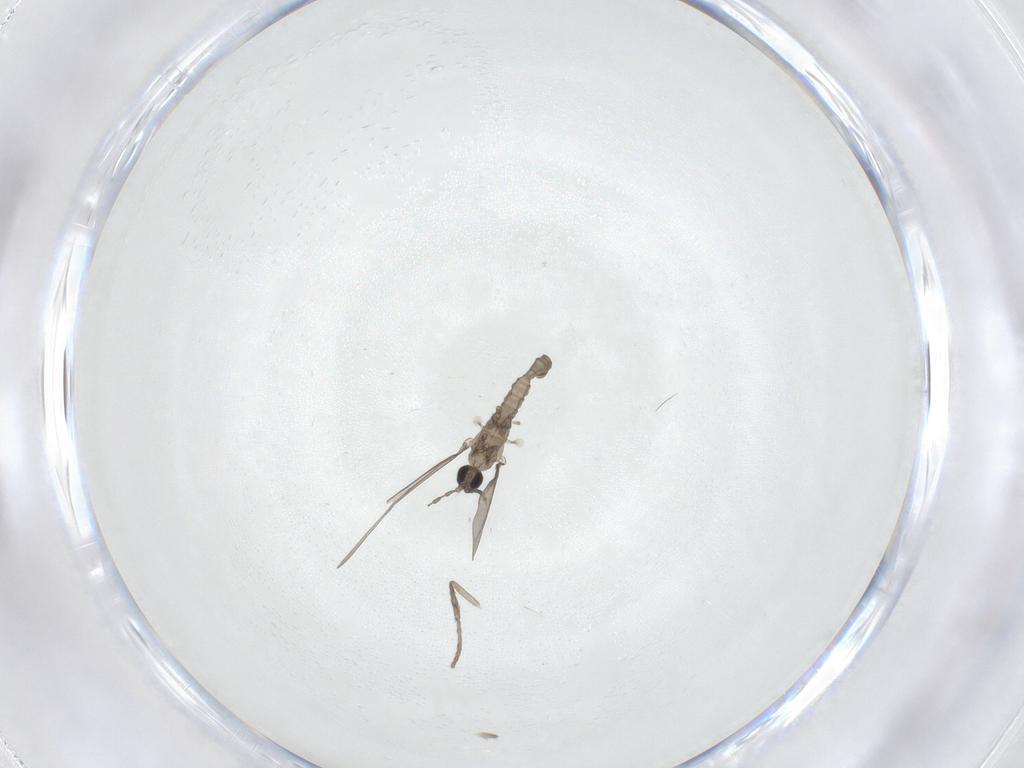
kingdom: Animalia
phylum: Arthropoda
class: Insecta
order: Diptera
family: Cecidomyiidae
